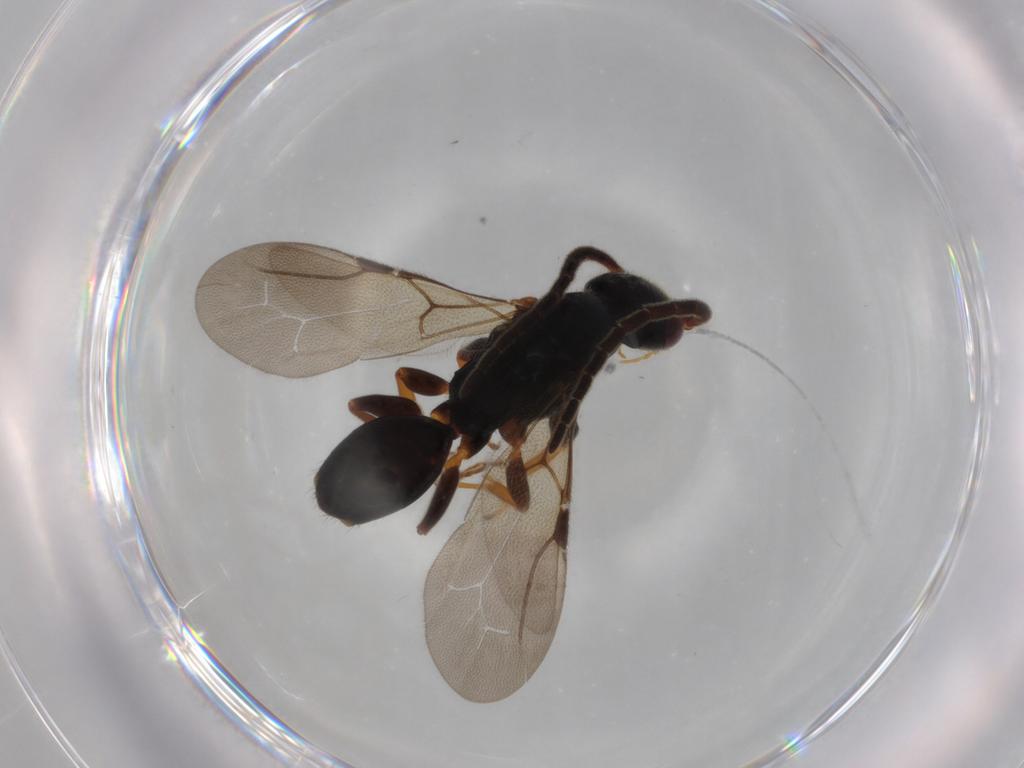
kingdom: Animalia
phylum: Arthropoda
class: Insecta
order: Hymenoptera
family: Bethylidae
